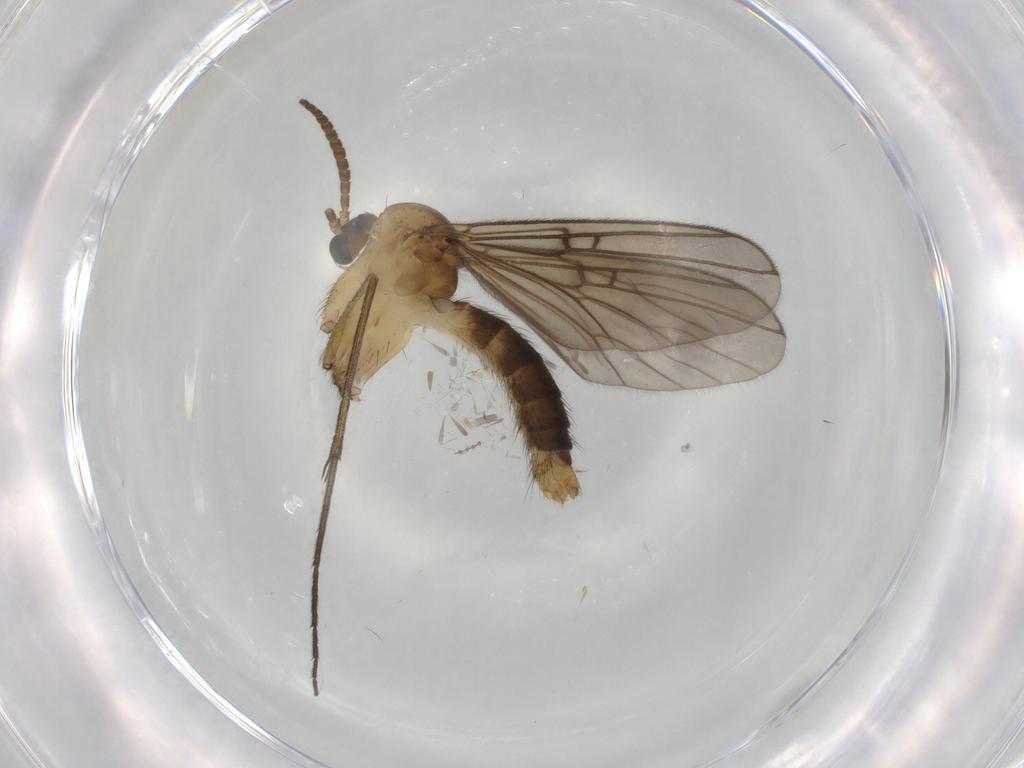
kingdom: Animalia
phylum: Arthropoda
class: Insecta
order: Diptera
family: Mycetophilidae
